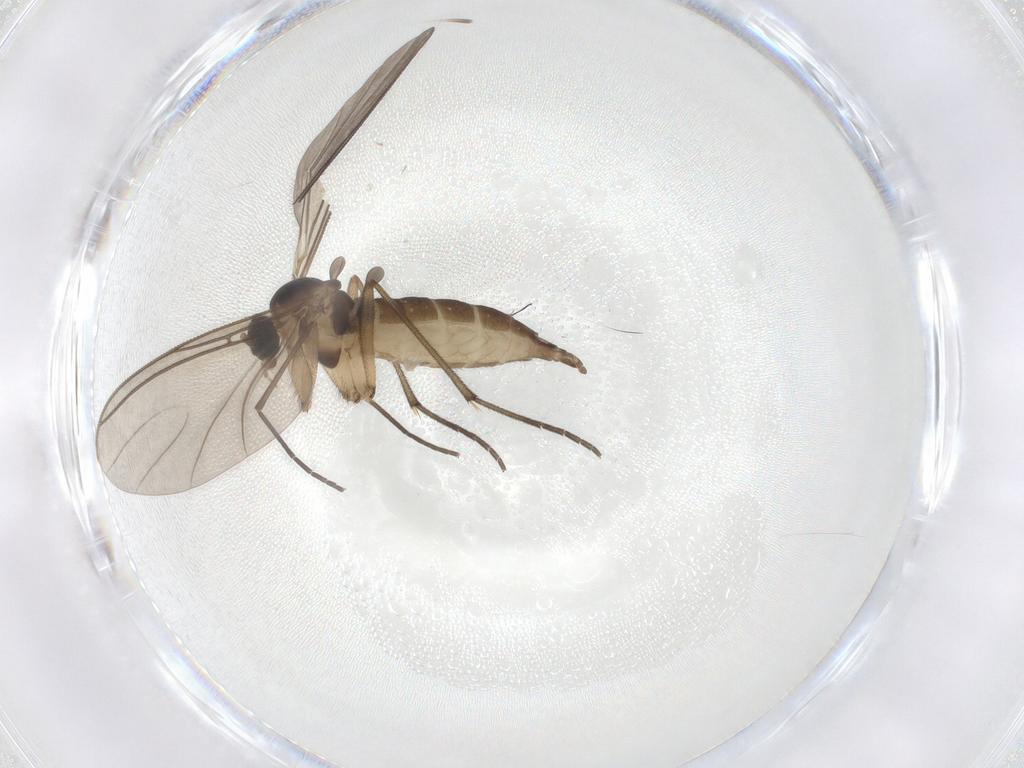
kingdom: Animalia
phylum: Arthropoda
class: Insecta
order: Diptera
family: Sciaridae
